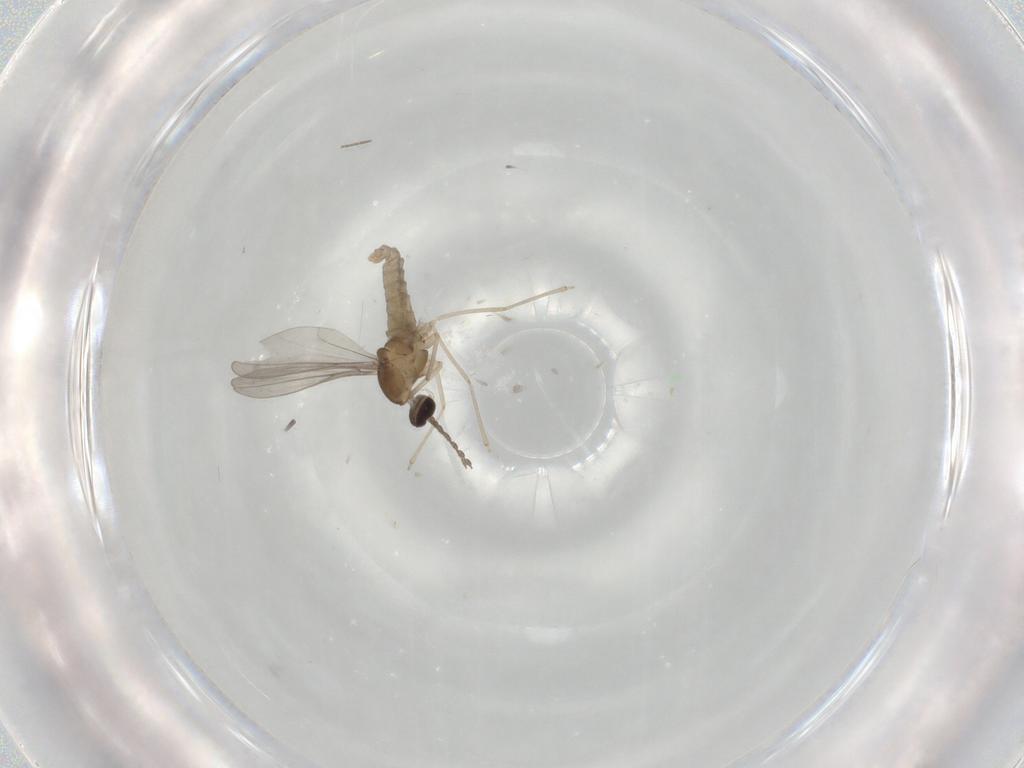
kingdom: Animalia
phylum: Arthropoda
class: Insecta
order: Diptera
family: Cecidomyiidae
